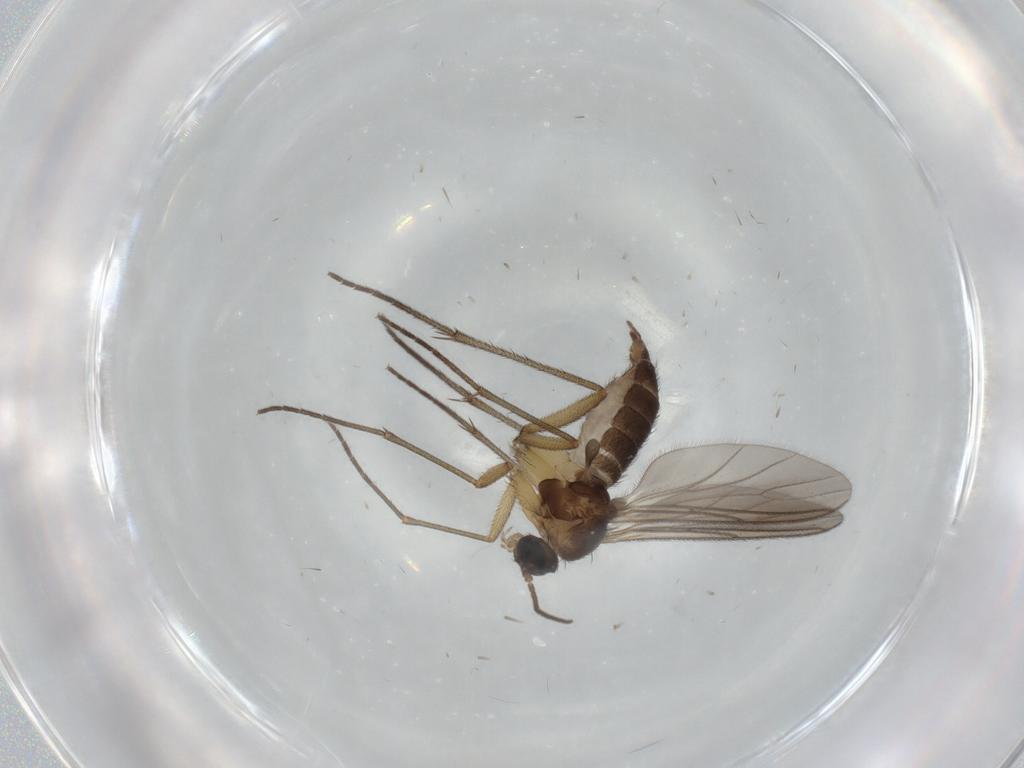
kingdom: Animalia
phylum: Arthropoda
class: Insecta
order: Diptera
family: Sciaridae
